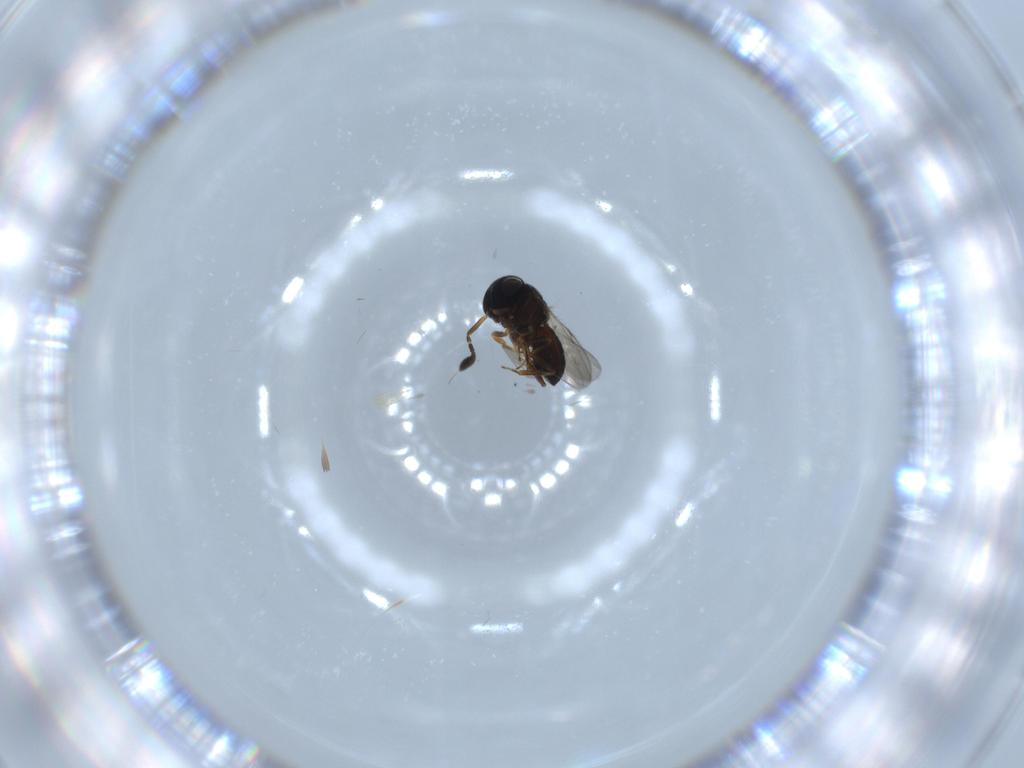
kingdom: Animalia
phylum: Arthropoda
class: Insecta
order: Coleoptera
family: Curculionidae
